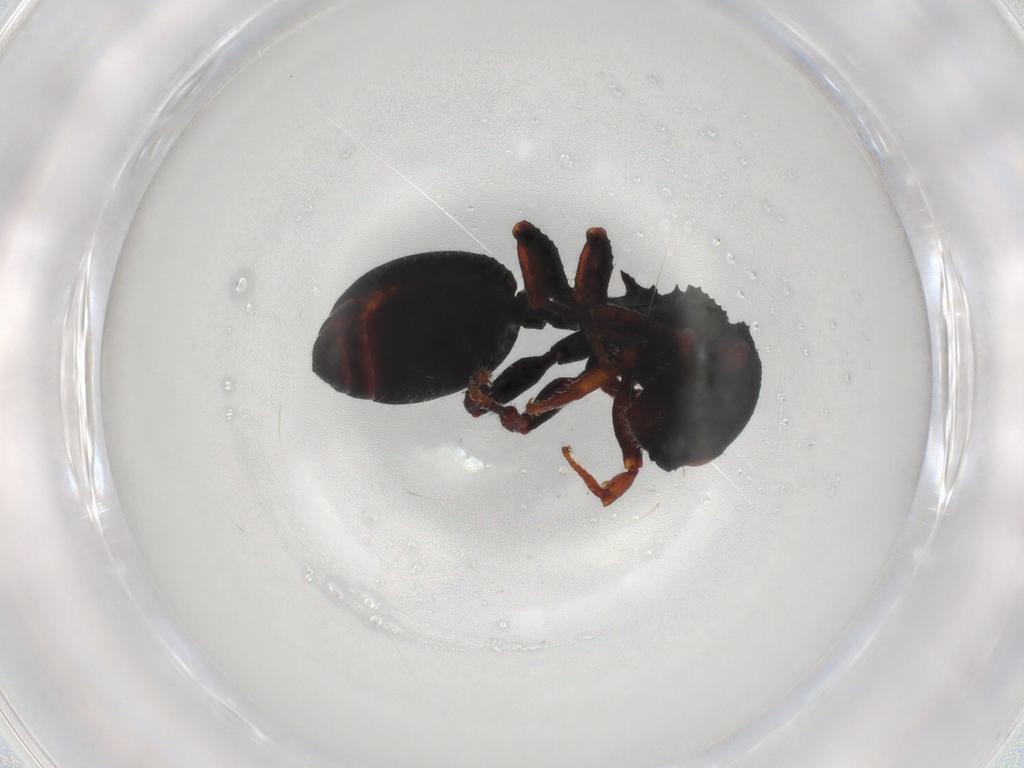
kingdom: Animalia
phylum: Arthropoda
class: Insecta
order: Hymenoptera
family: Formicidae
